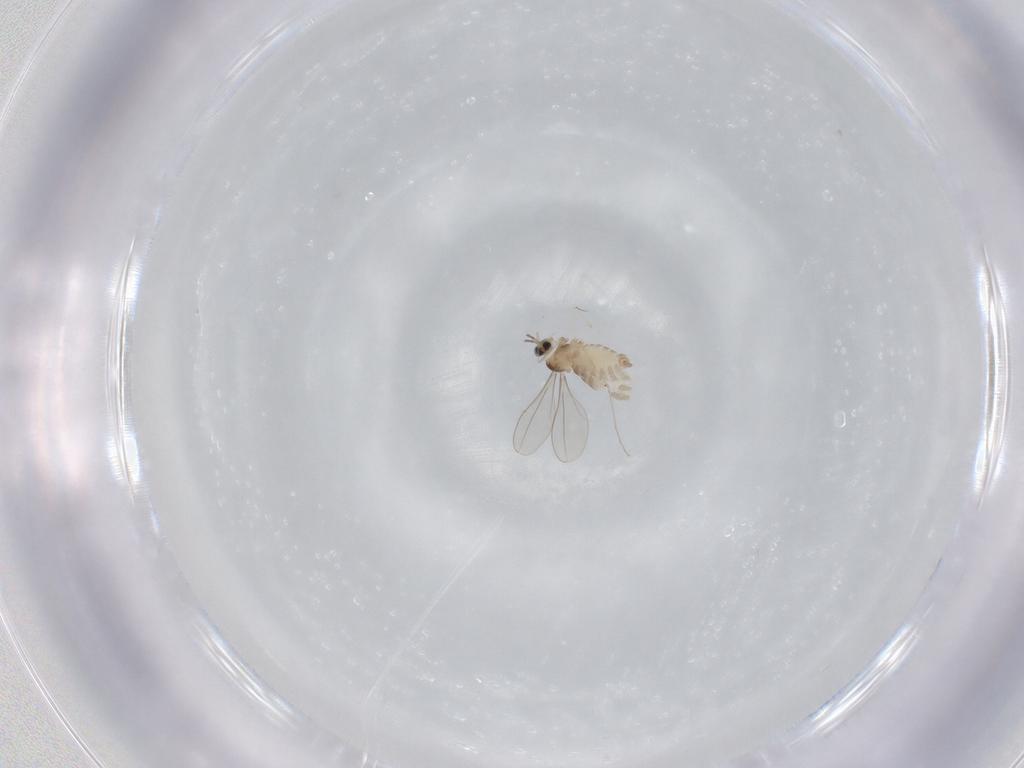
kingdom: Animalia
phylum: Arthropoda
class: Insecta
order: Diptera
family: Cecidomyiidae
